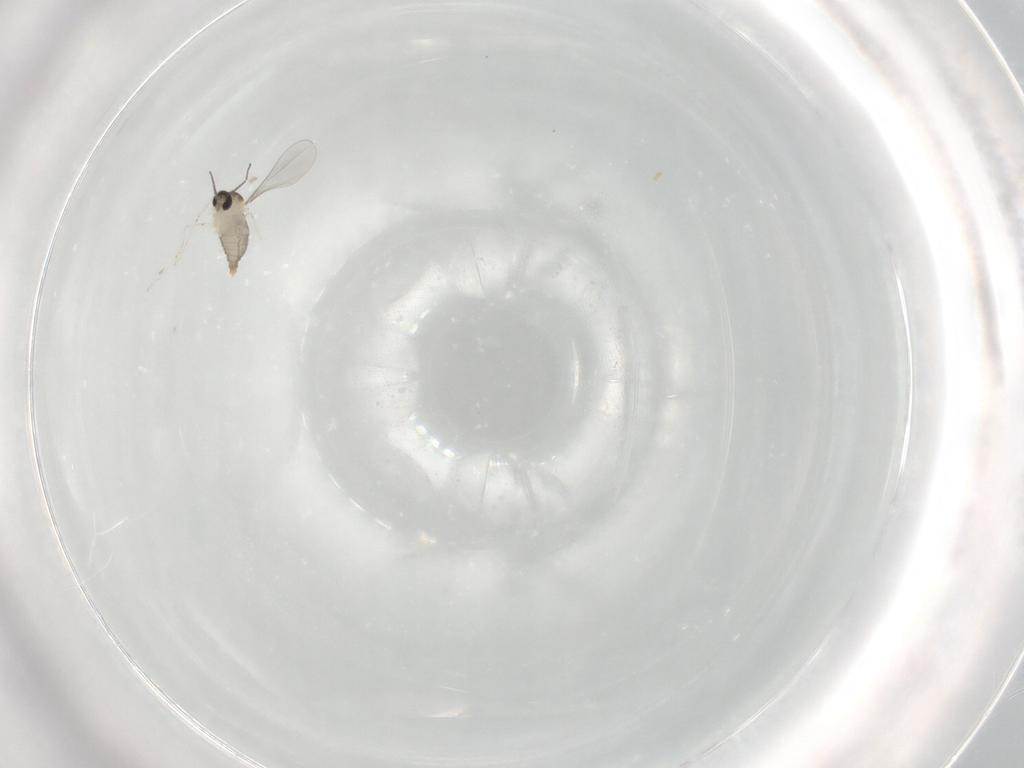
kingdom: Animalia
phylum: Arthropoda
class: Insecta
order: Diptera
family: Cecidomyiidae
